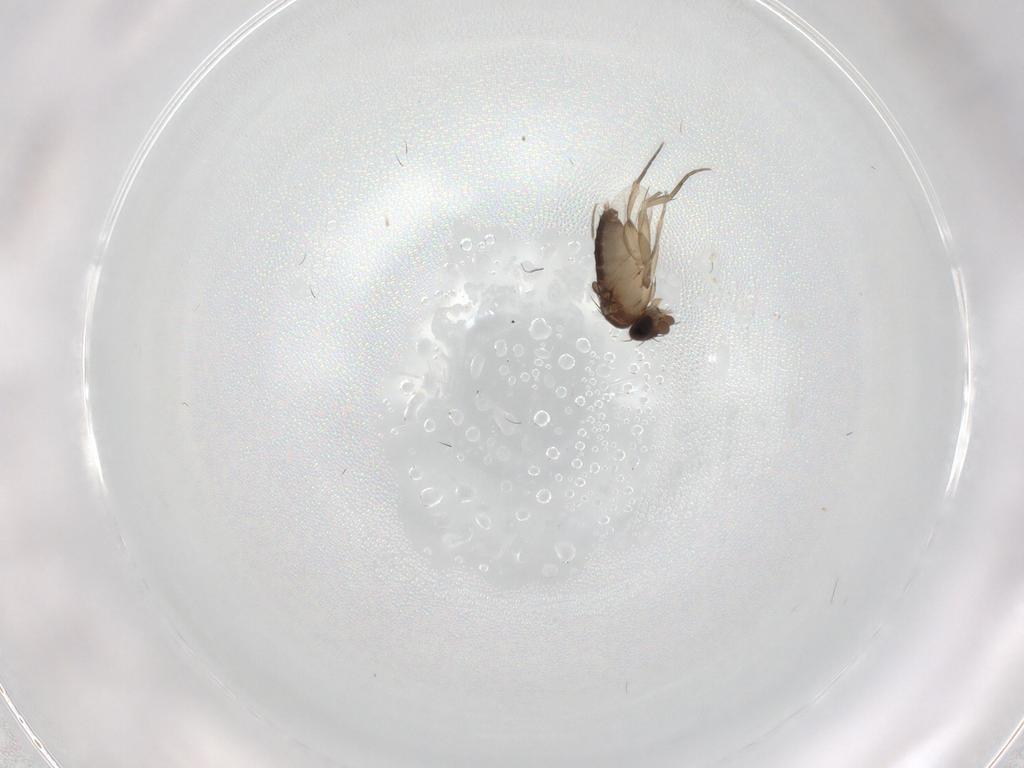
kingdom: Animalia
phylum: Arthropoda
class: Insecta
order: Diptera
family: Phoridae
